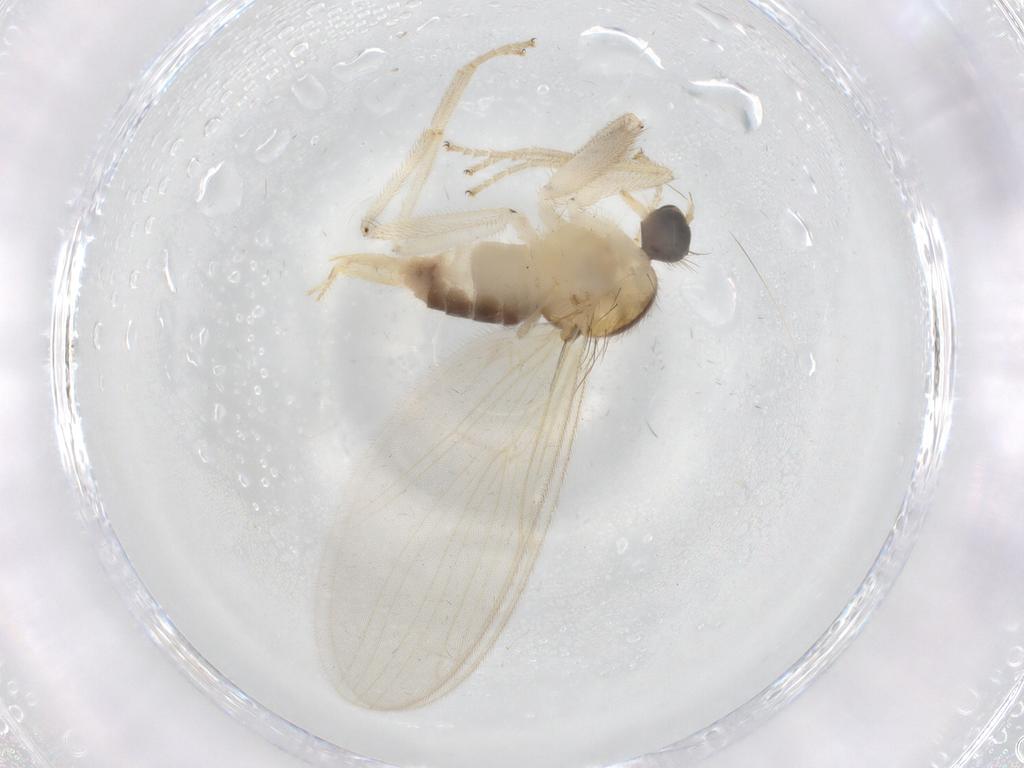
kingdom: Animalia
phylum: Arthropoda
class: Insecta
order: Diptera
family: Hybotidae
